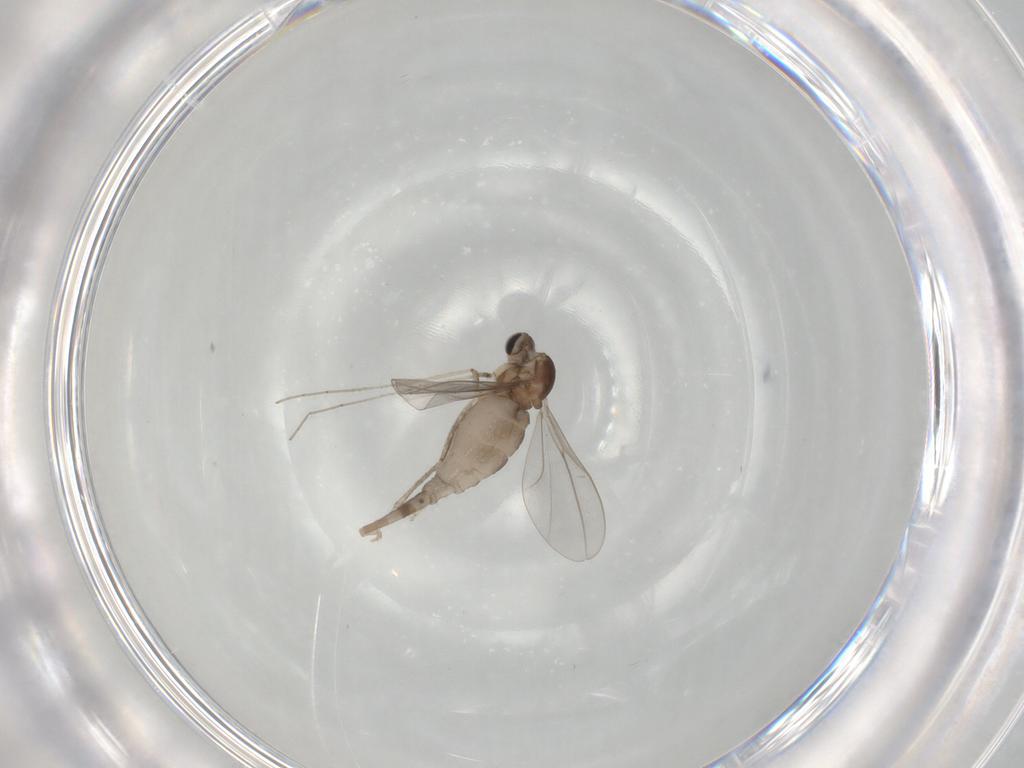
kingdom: Animalia
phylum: Arthropoda
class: Insecta
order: Diptera
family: Cecidomyiidae
